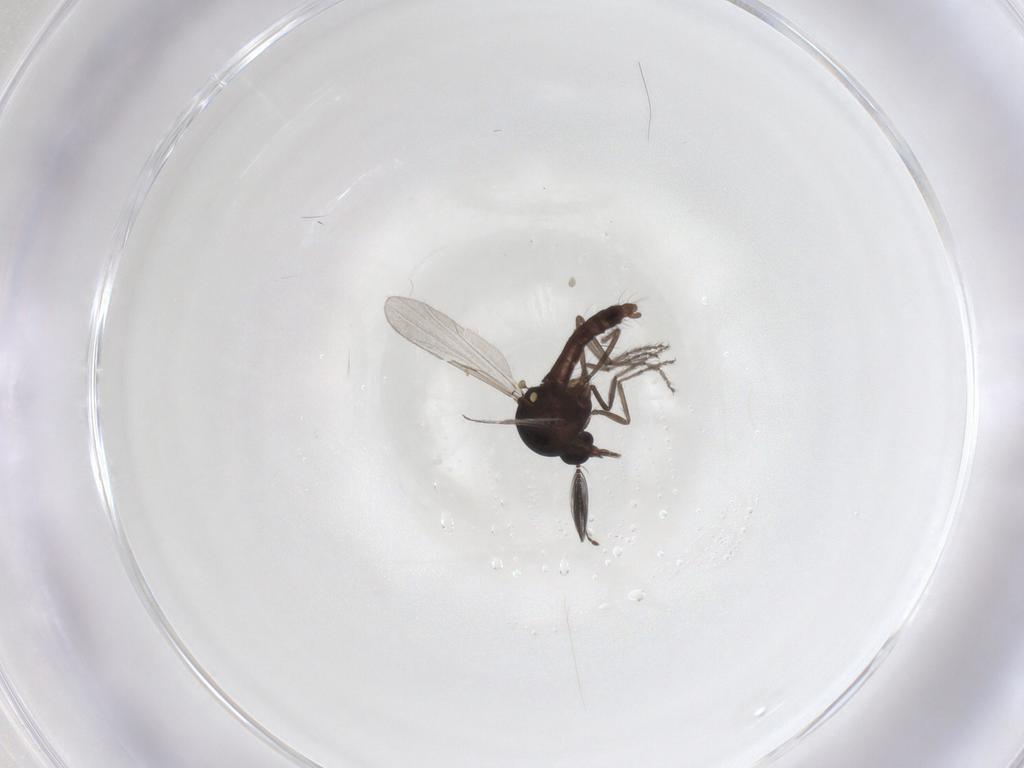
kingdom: Animalia
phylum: Arthropoda
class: Insecta
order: Diptera
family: Ceratopogonidae
